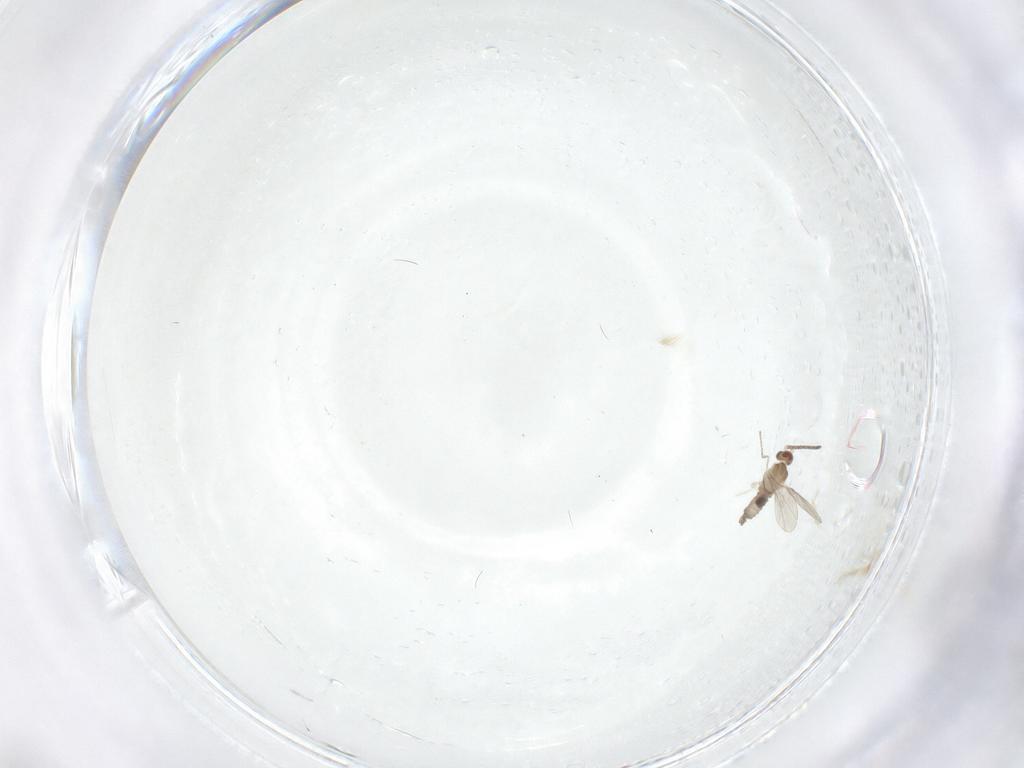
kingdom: Animalia
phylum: Arthropoda
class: Insecta
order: Diptera
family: Cecidomyiidae
